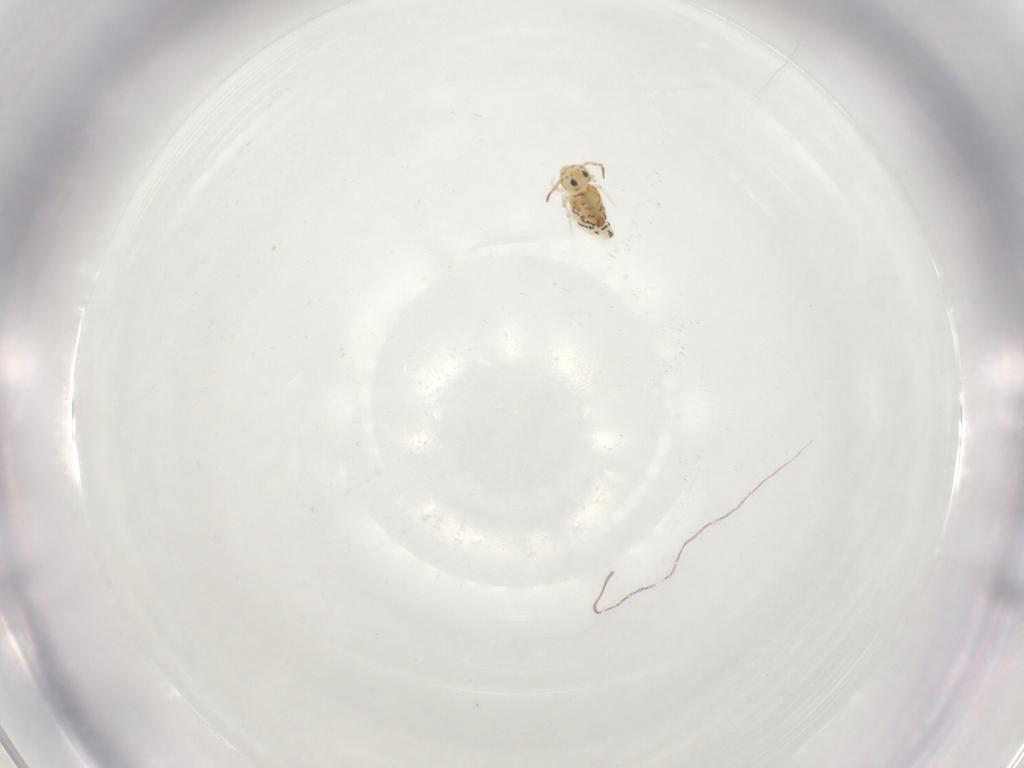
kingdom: Animalia
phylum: Arthropoda
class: Collembola
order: Symphypleona
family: Bourletiellidae
